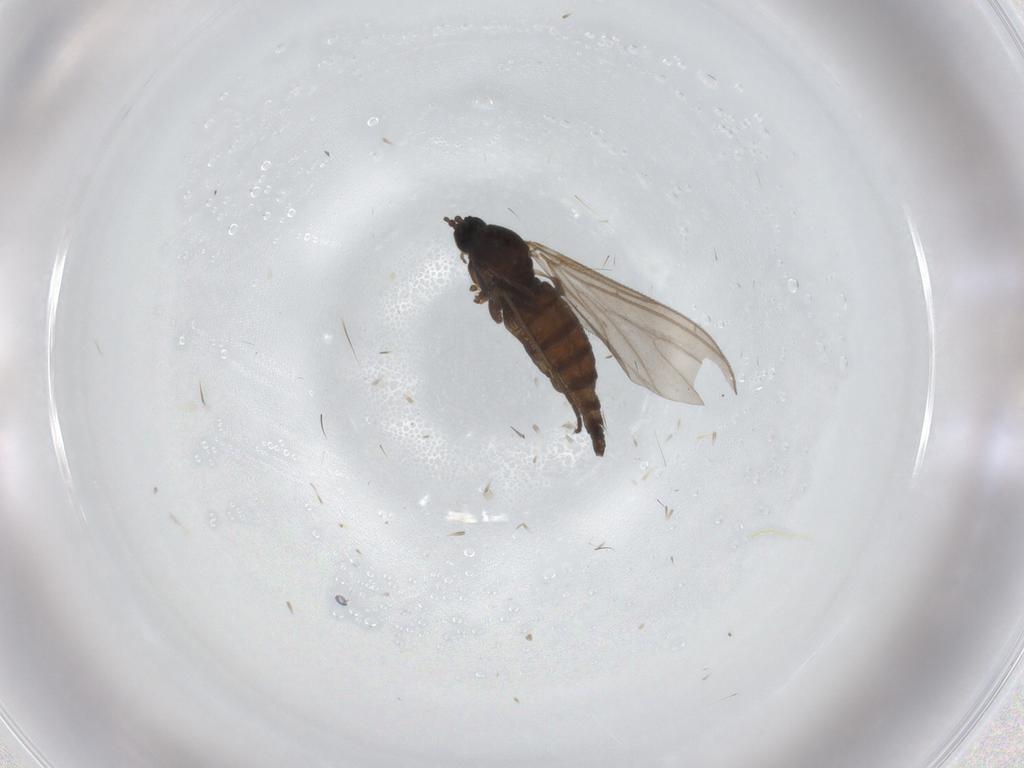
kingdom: Animalia
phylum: Arthropoda
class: Insecta
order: Diptera
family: Sciaridae
